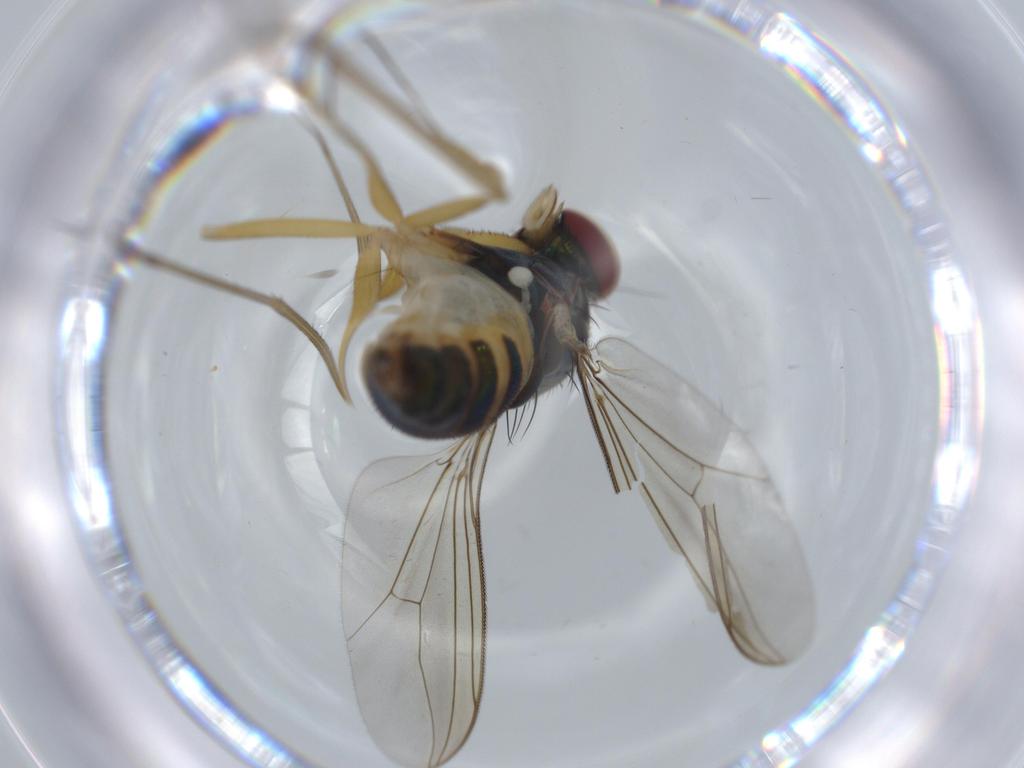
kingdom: Animalia
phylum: Arthropoda
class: Insecta
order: Diptera
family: Dolichopodidae
